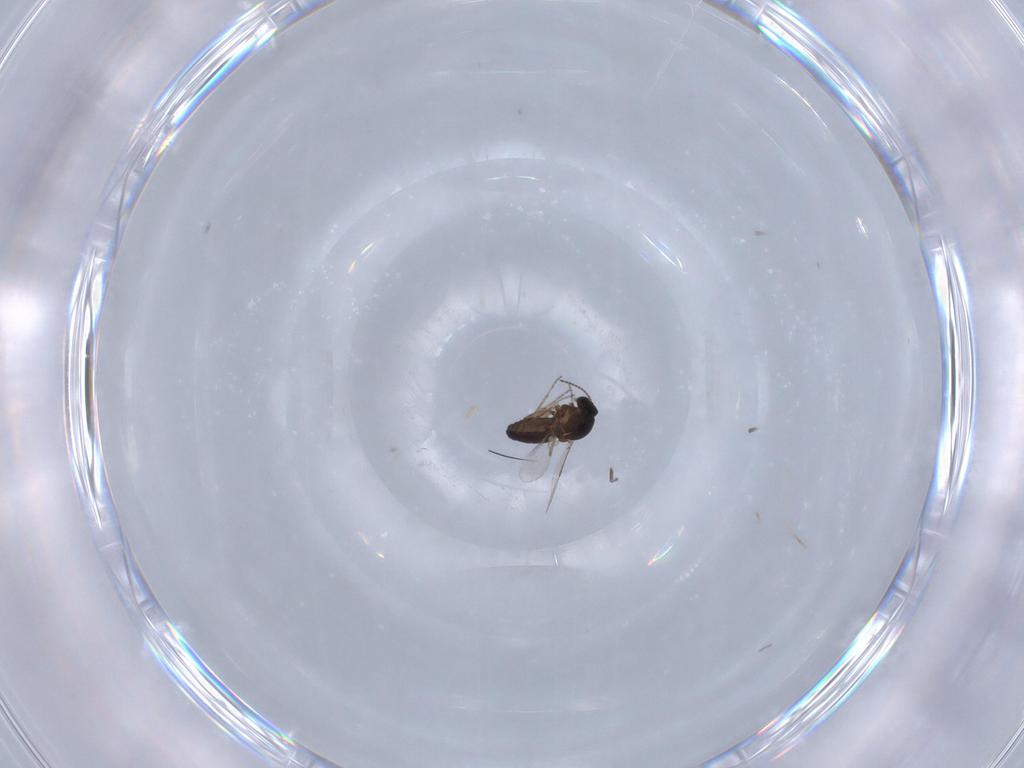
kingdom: Animalia
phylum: Arthropoda
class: Insecta
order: Diptera
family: Ceratopogonidae
